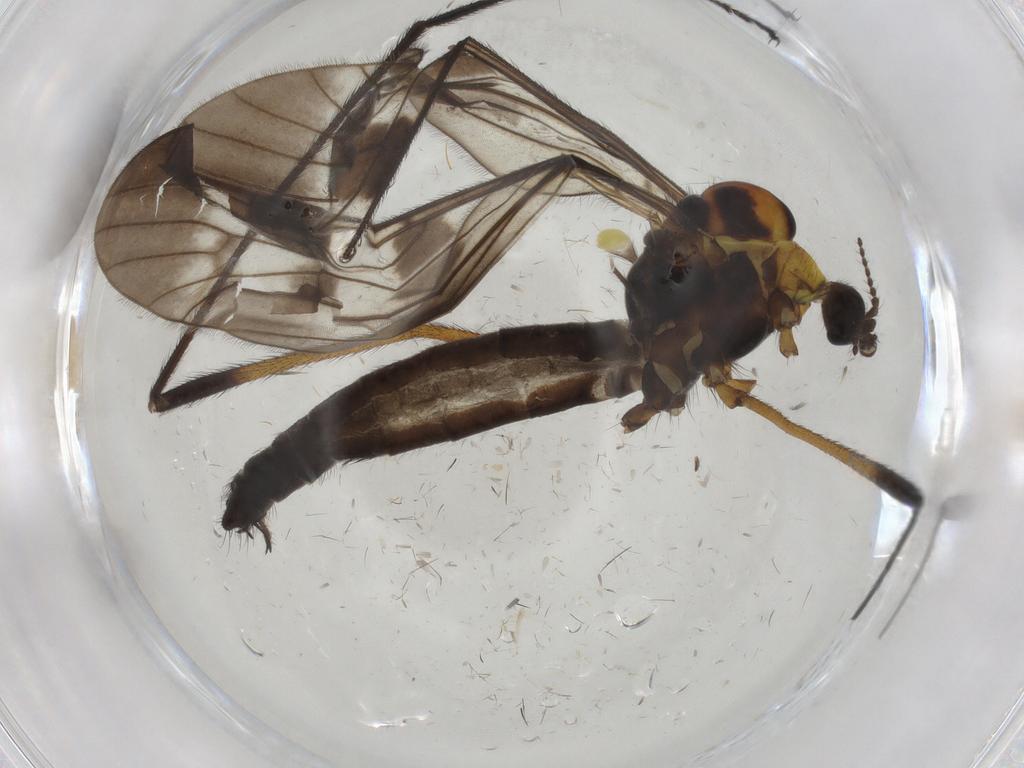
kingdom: Animalia
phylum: Arthropoda
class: Insecta
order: Diptera
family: Limoniidae
